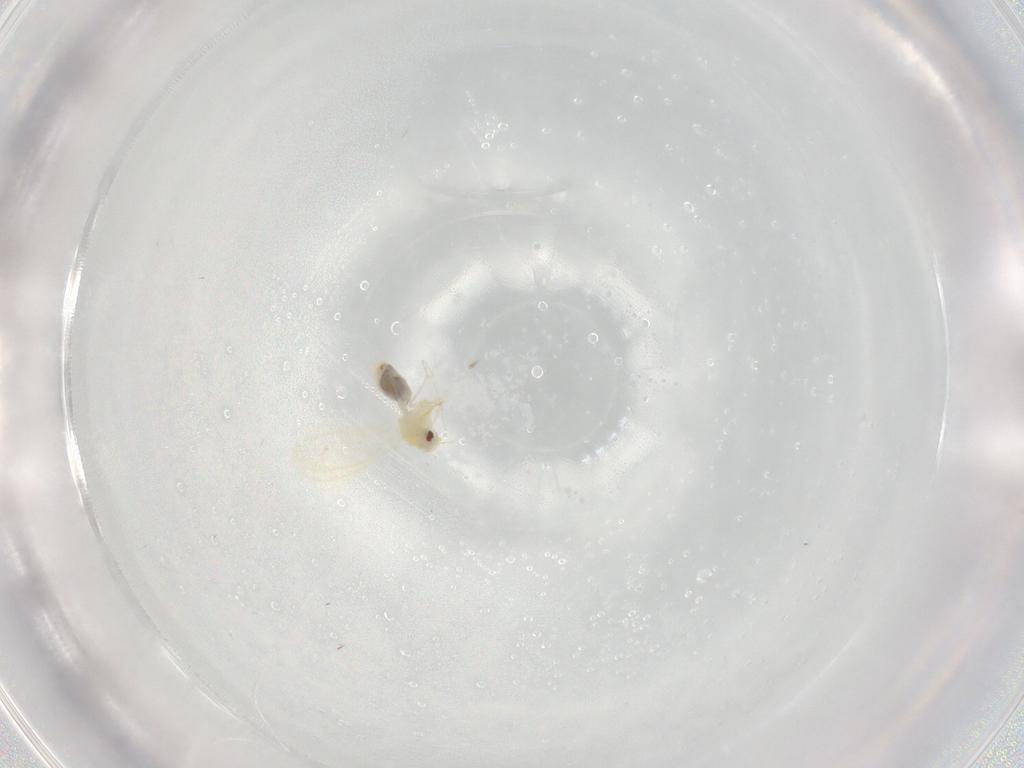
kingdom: Animalia
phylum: Arthropoda
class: Insecta
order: Hemiptera
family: Aleyrodidae
